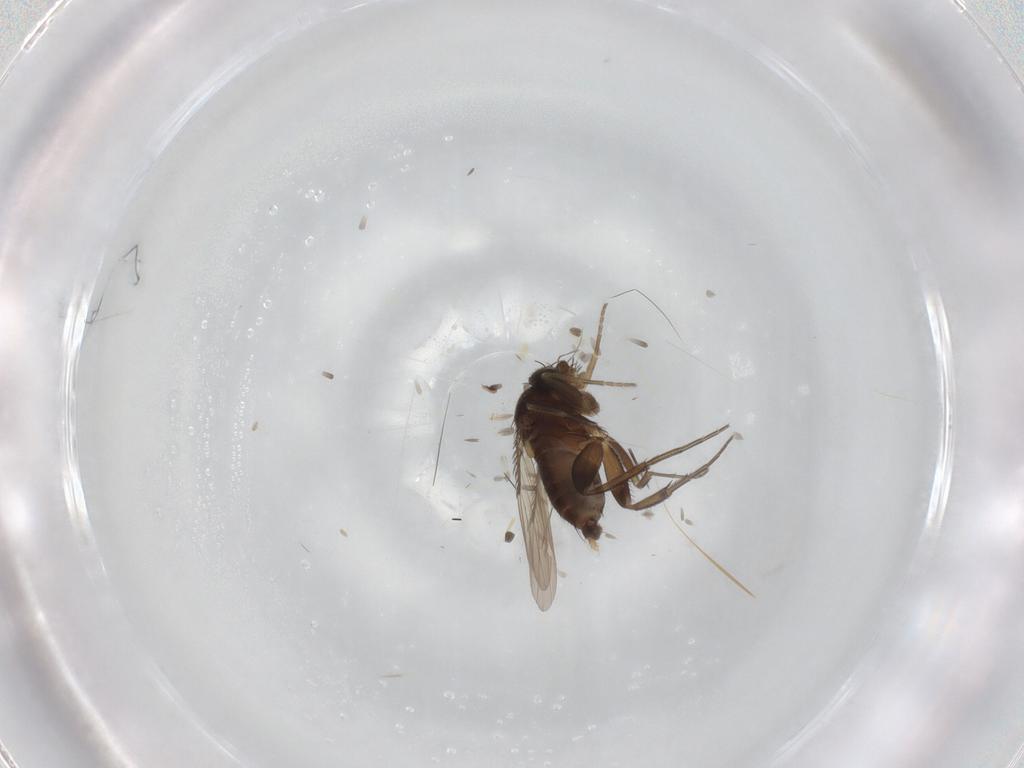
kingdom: Animalia
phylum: Arthropoda
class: Insecta
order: Diptera
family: Phoridae
